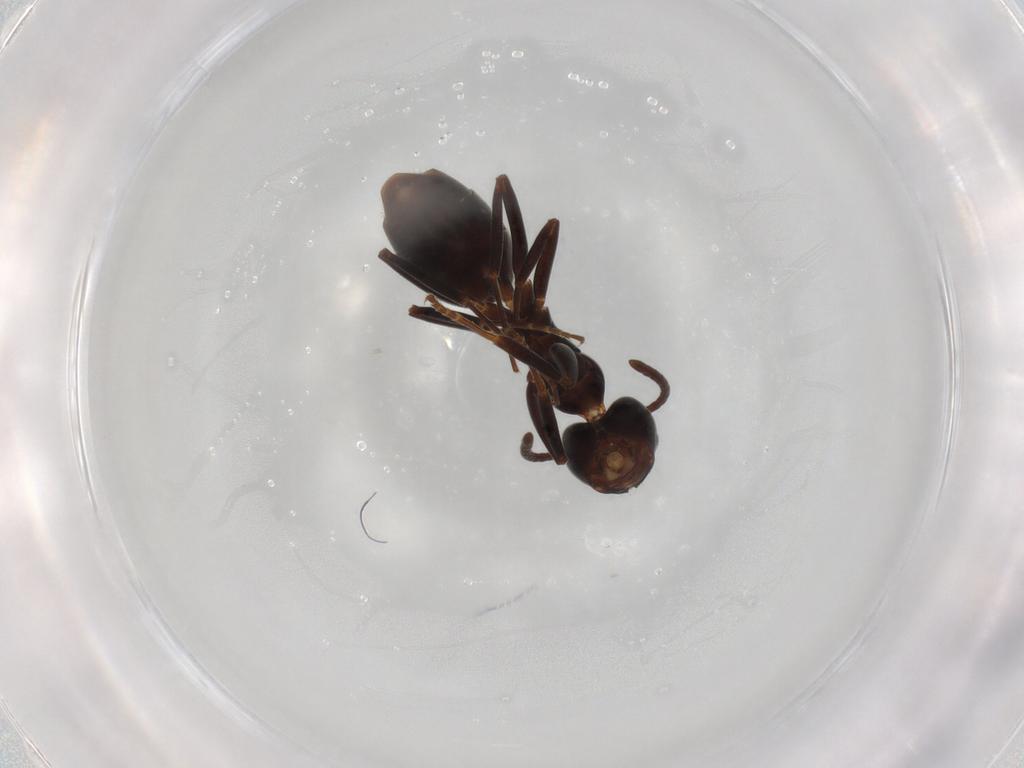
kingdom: Animalia
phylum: Arthropoda
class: Insecta
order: Hymenoptera
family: Formicidae
